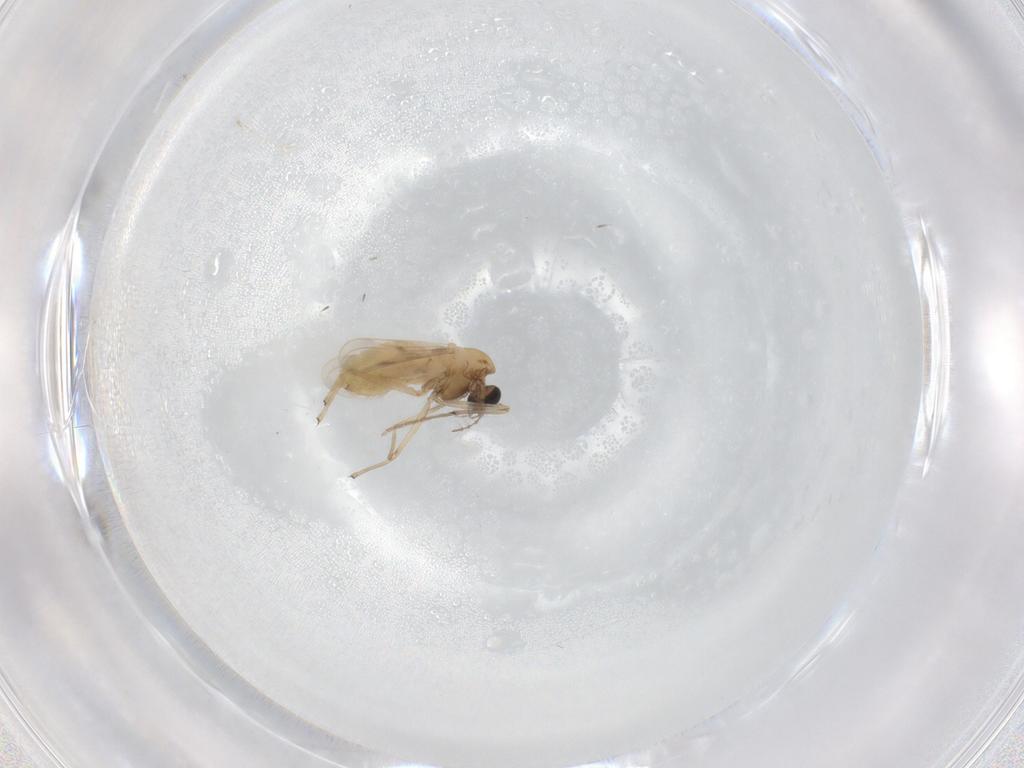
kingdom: Animalia
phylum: Arthropoda
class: Insecta
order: Diptera
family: Chironomidae
